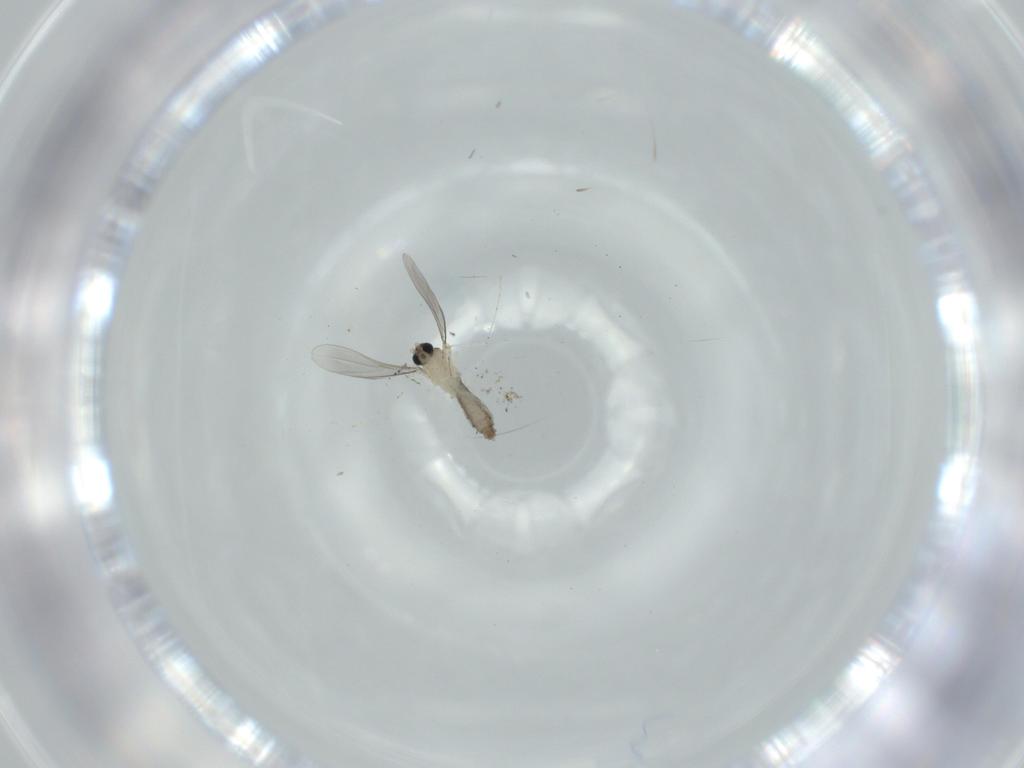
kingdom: Animalia
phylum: Arthropoda
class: Insecta
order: Diptera
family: Cecidomyiidae
